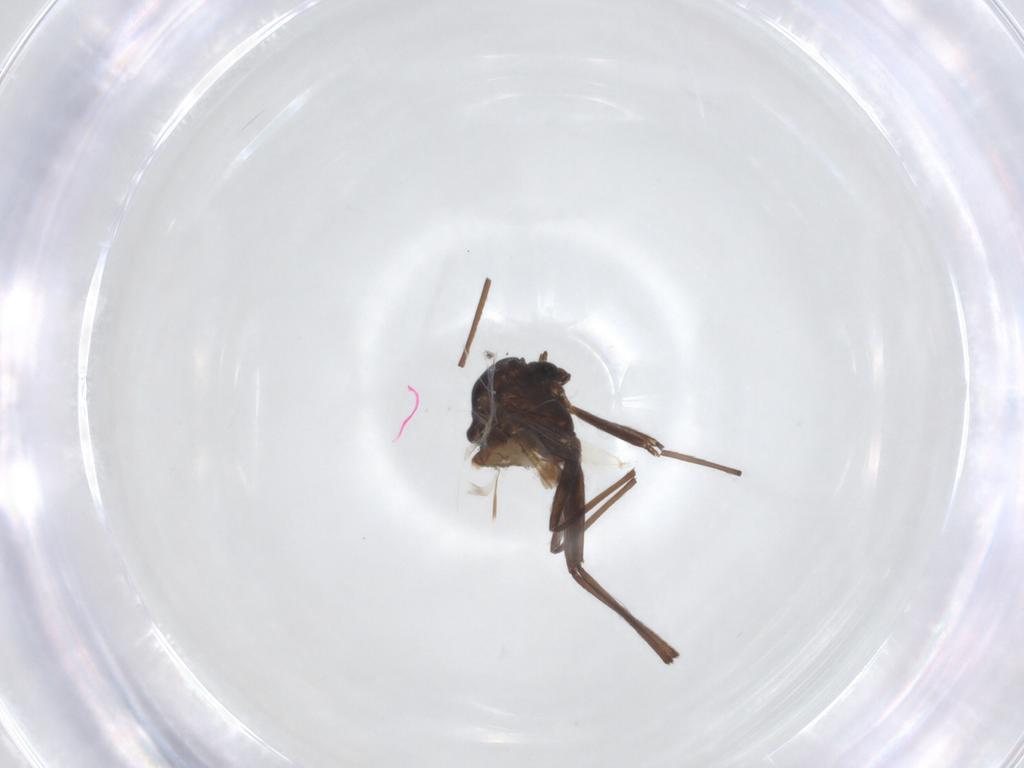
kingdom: Animalia
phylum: Arthropoda
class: Insecta
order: Diptera
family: Chironomidae
